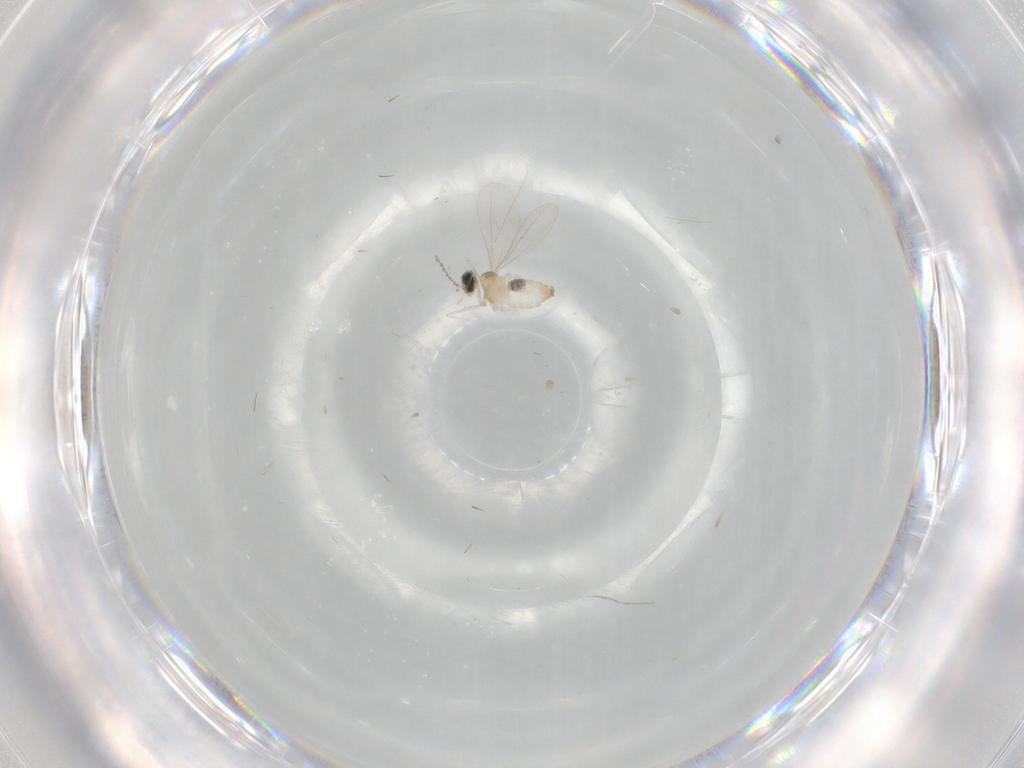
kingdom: Animalia
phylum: Arthropoda
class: Insecta
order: Diptera
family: Cecidomyiidae
